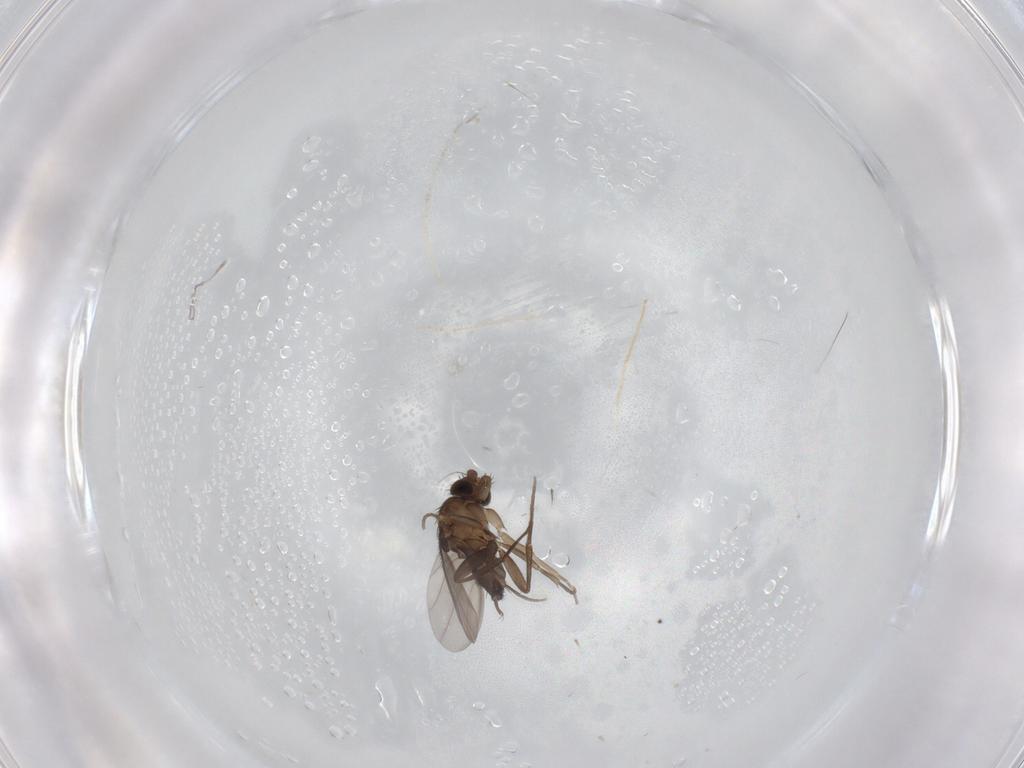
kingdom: Animalia
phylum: Arthropoda
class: Insecta
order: Diptera
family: Phoridae
